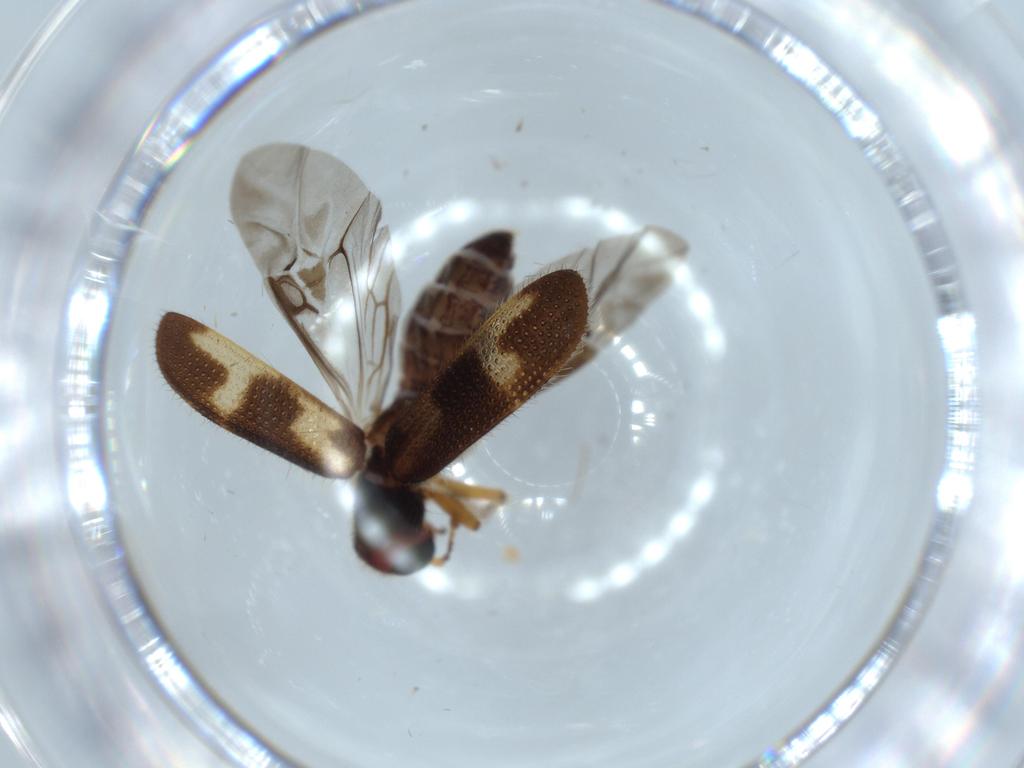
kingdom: Animalia
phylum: Arthropoda
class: Insecta
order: Coleoptera
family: Cleridae
